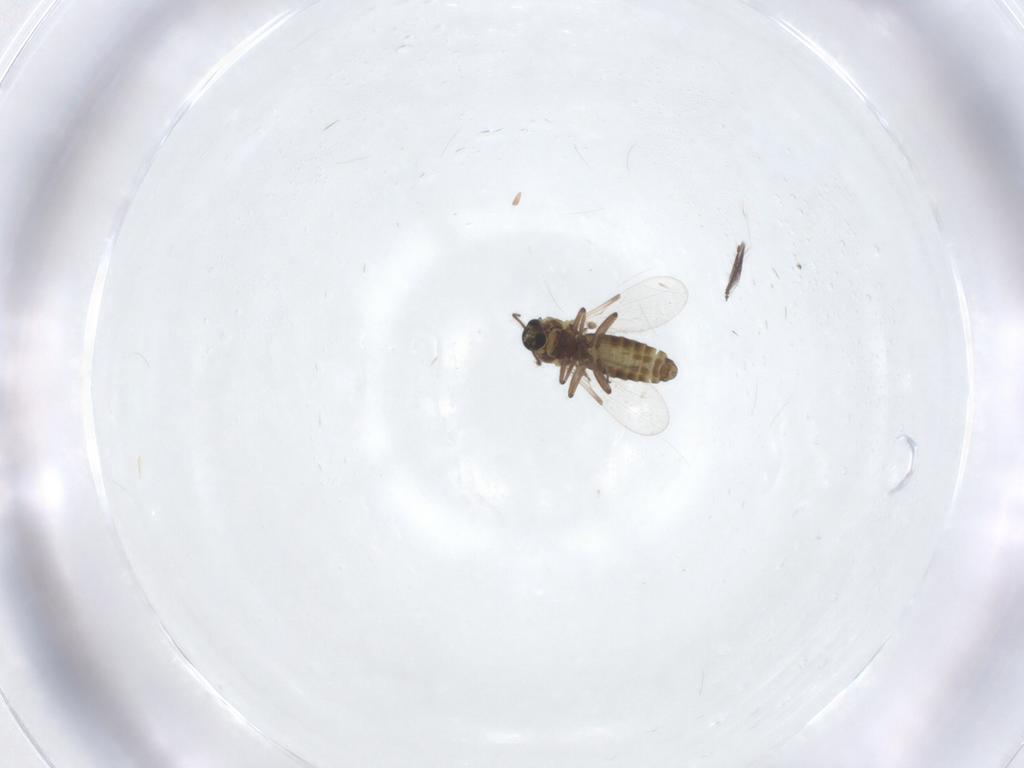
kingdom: Animalia
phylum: Arthropoda
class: Insecta
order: Diptera
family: Ceratopogonidae
